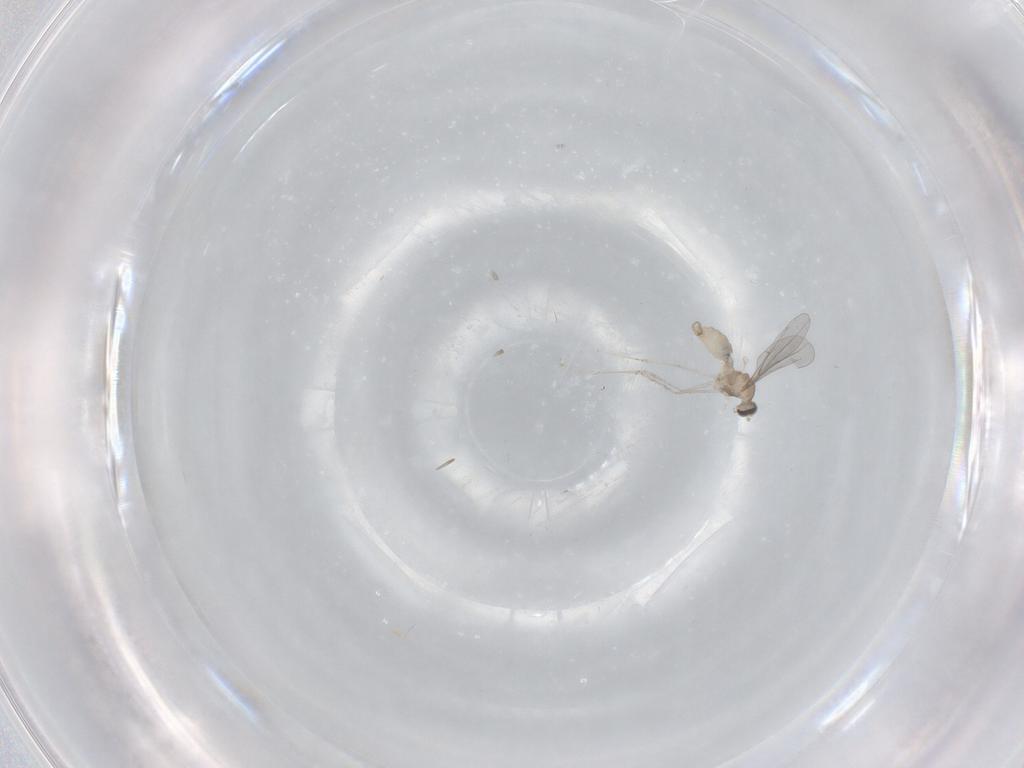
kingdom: Animalia
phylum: Arthropoda
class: Insecta
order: Diptera
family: Cecidomyiidae
